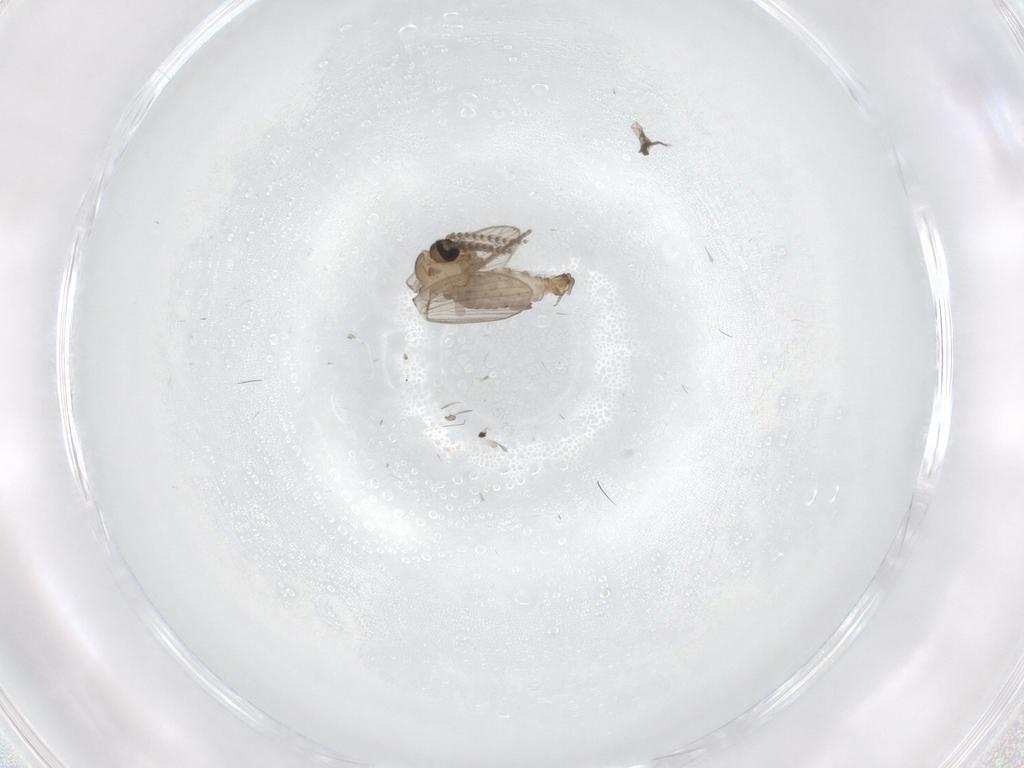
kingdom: Animalia
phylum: Arthropoda
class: Insecta
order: Diptera
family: Psychodidae
